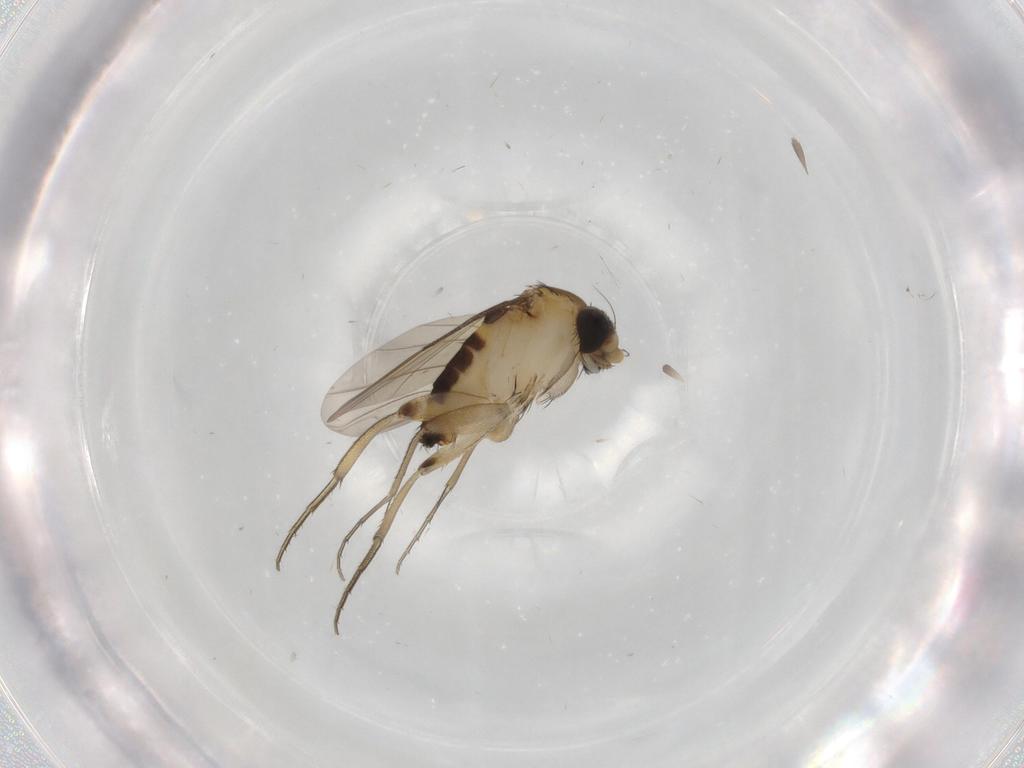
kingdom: Animalia
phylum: Arthropoda
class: Insecta
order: Diptera
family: Phoridae
